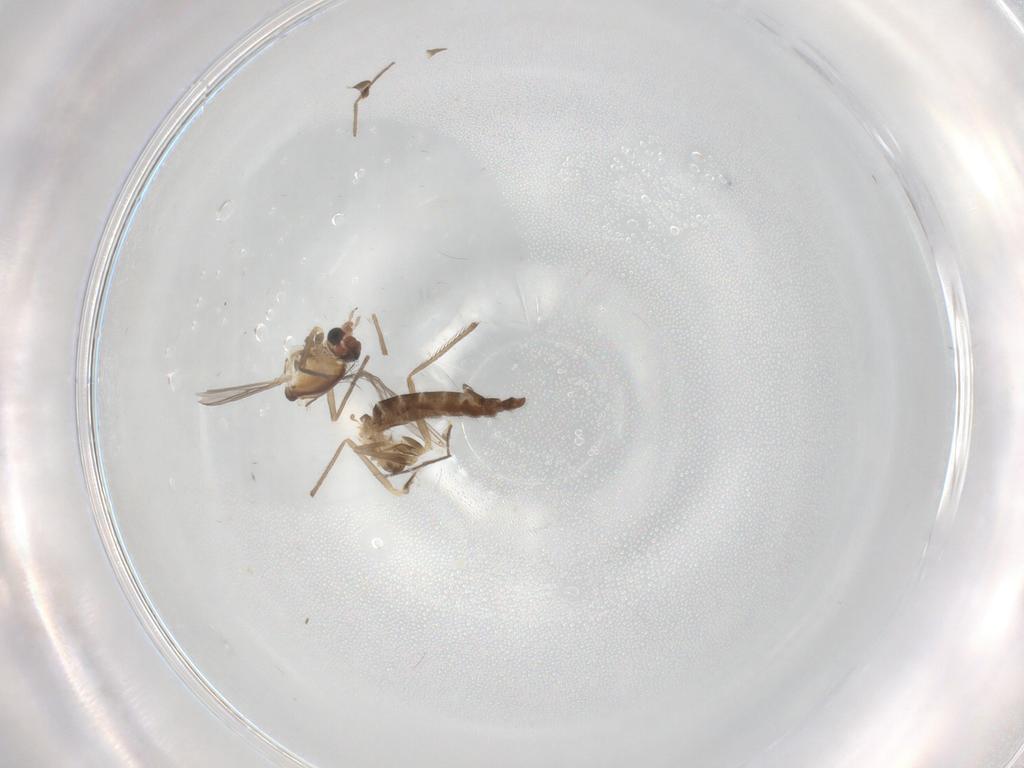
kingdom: Animalia
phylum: Arthropoda
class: Insecta
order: Diptera
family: Chironomidae
